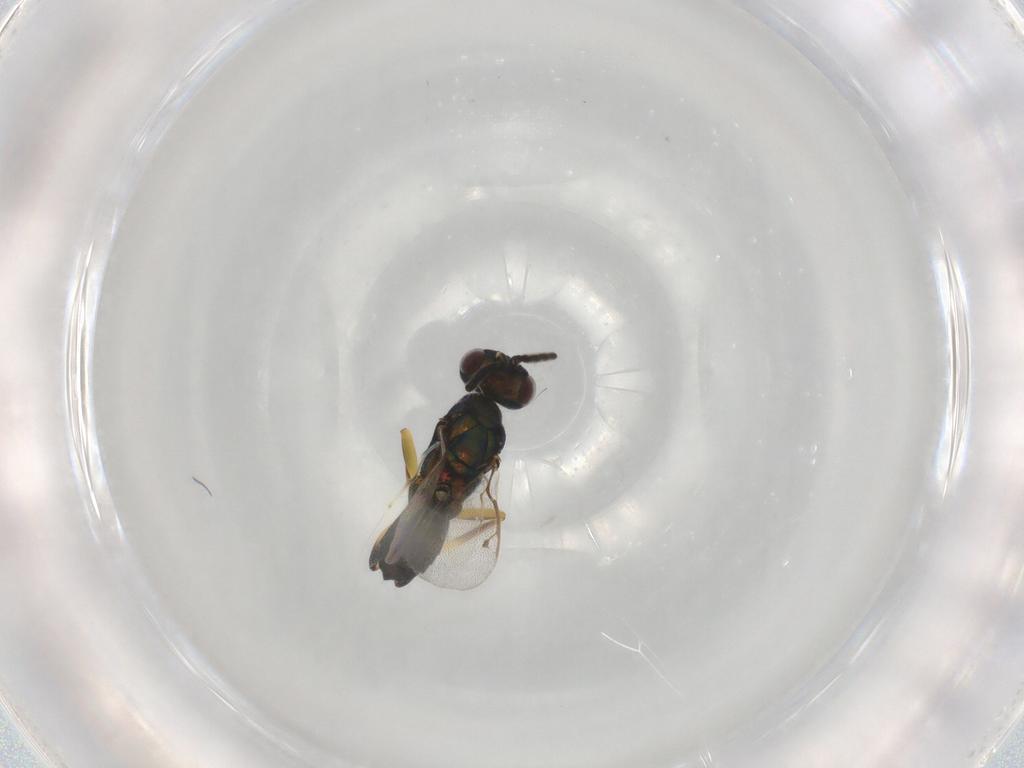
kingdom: Animalia
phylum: Arthropoda
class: Insecta
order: Hymenoptera
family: Pteromalidae
